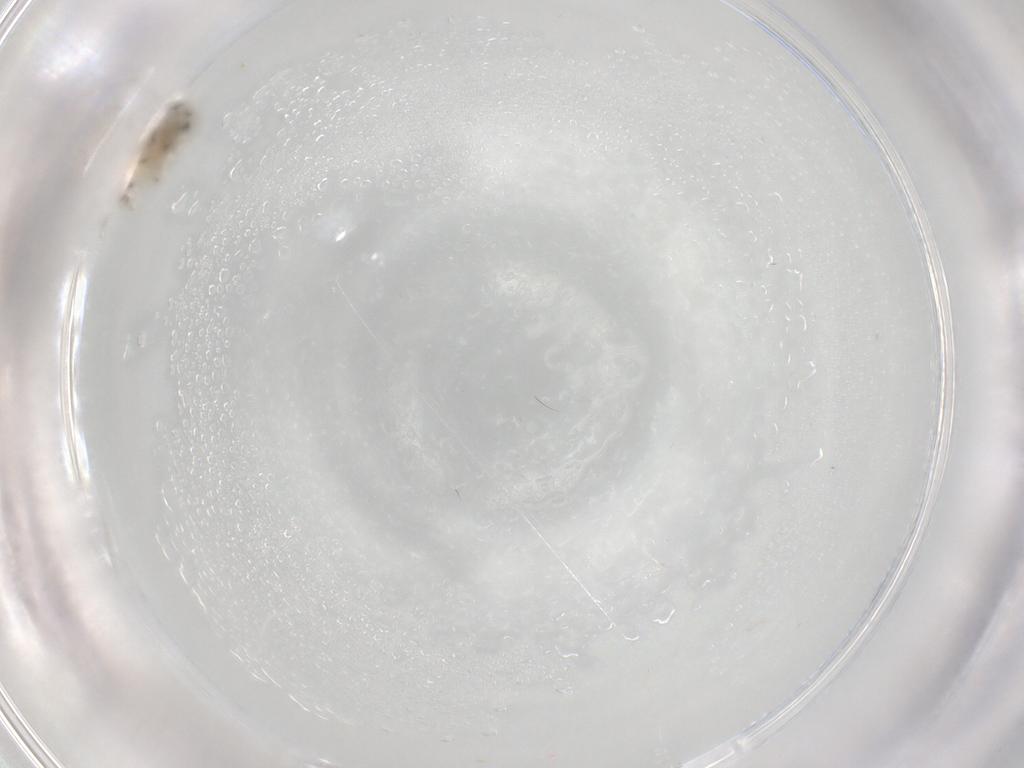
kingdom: Animalia
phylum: Arthropoda
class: Insecta
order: Diptera
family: Chironomidae
